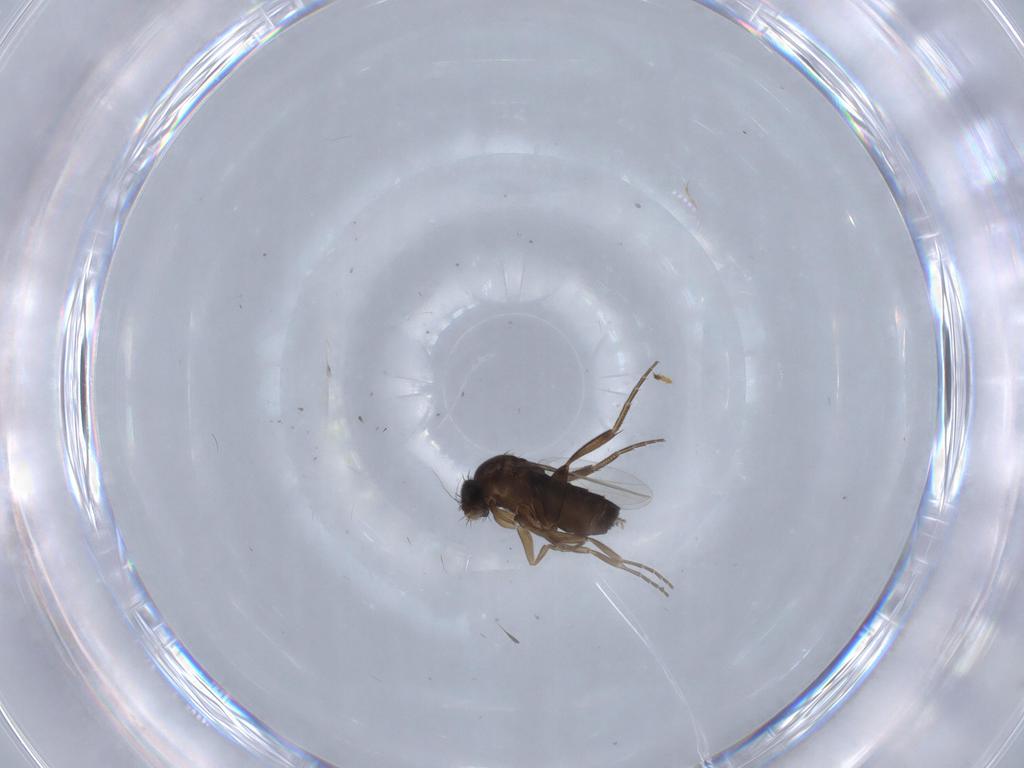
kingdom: Animalia
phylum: Arthropoda
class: Insecta
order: Diptera
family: Phoridae
